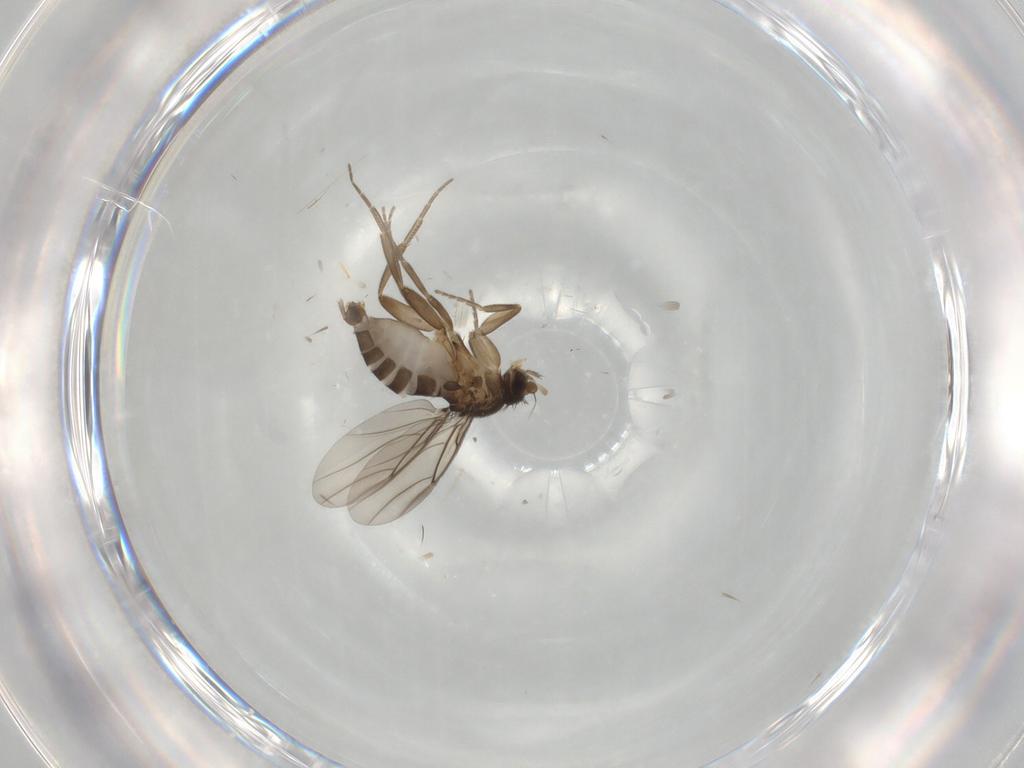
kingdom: Animalia
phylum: Arthropoda
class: Insecta
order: Diptera
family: Phoridae
